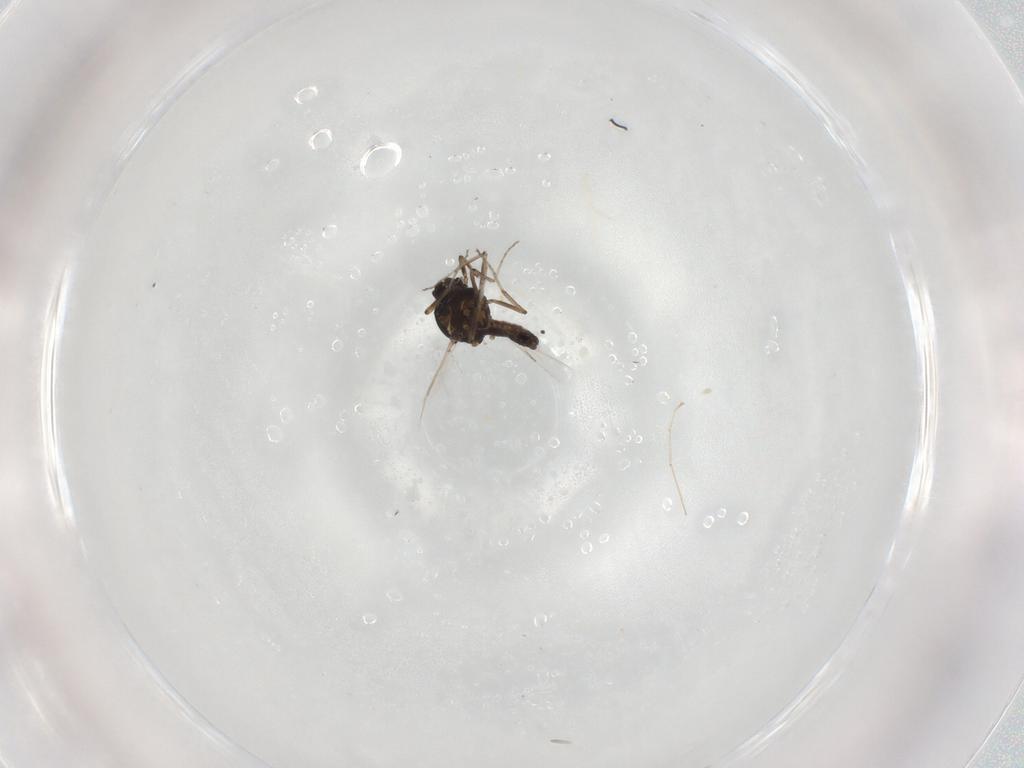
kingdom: Animalia
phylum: Arthropoda
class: Insecta
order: Diptera
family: Ceratopogonidae
